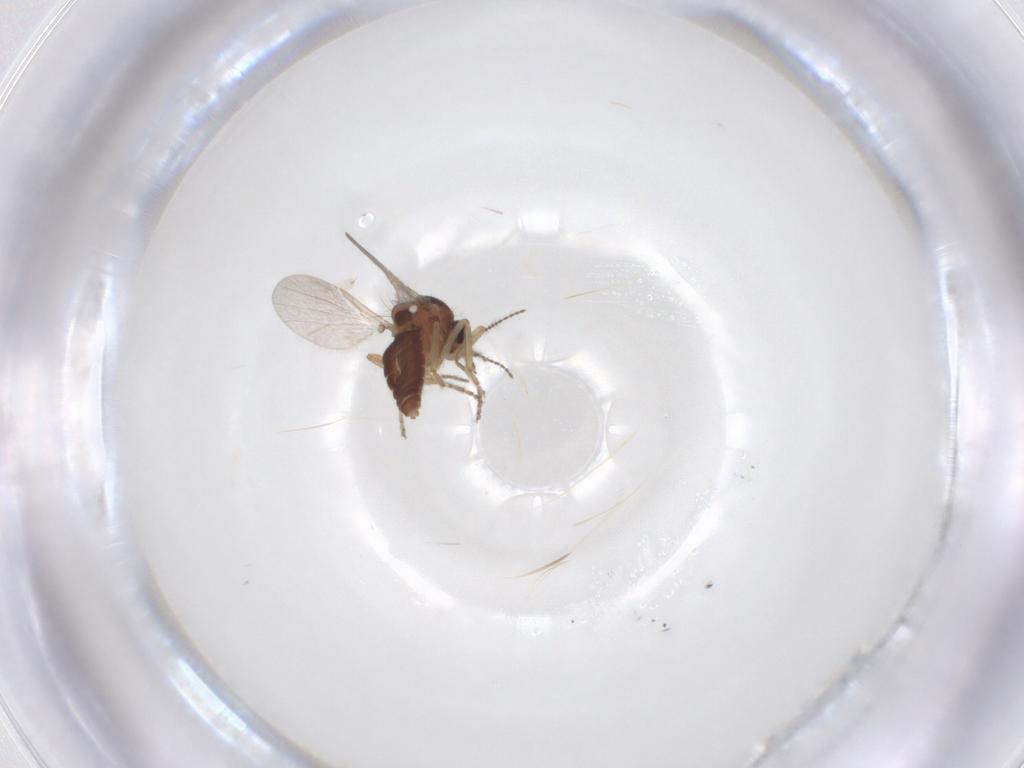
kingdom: Animalia
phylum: Arthropoda
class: Insecta
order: Diptera
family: Ceratopogonidae
